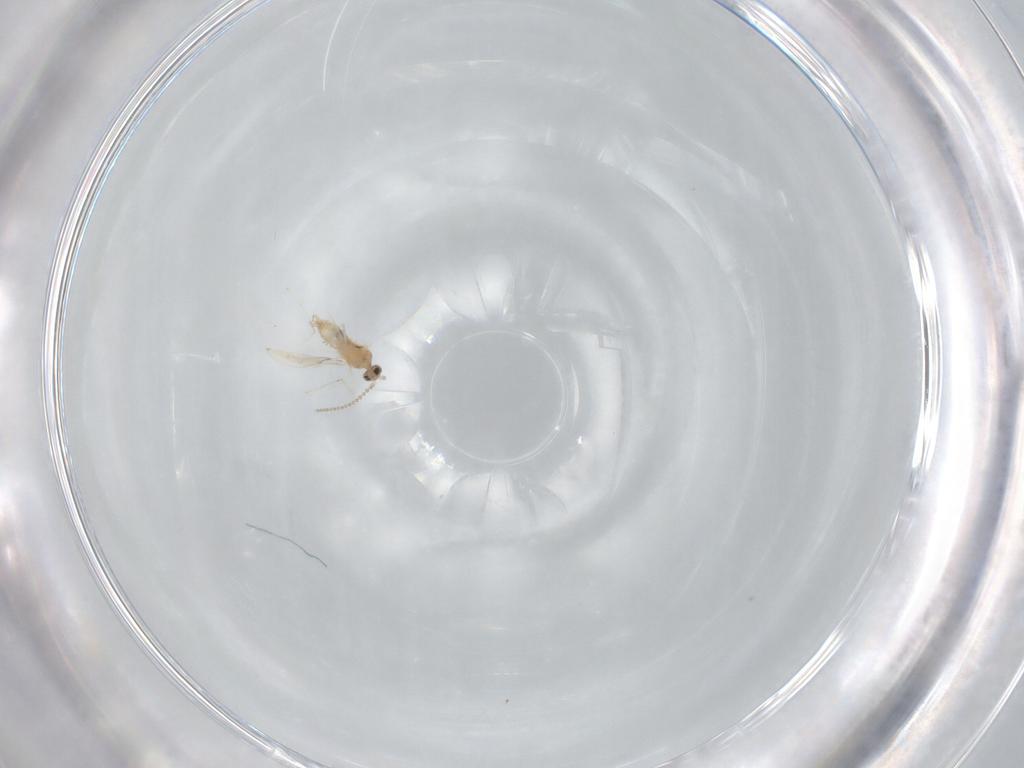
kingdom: Animalia
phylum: Arthropoda
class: Insecta
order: Diptera
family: Cecidomyiidae
